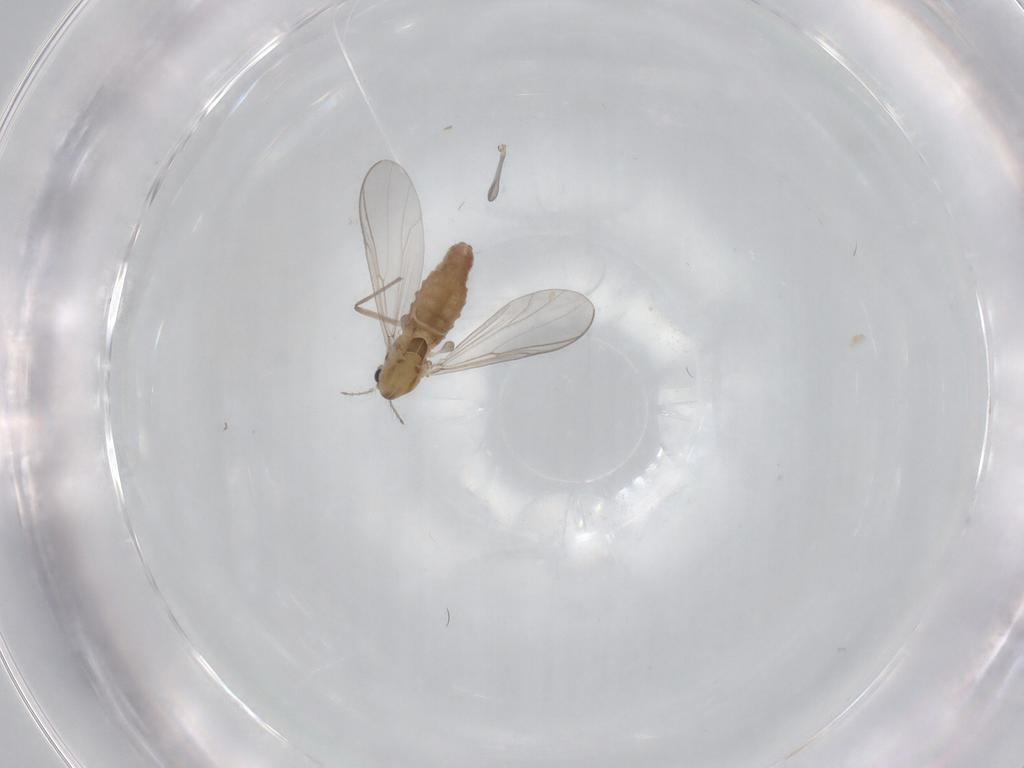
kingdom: Animalia
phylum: Arthropoda
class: Insecta
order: Diptera
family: Chironomidae
